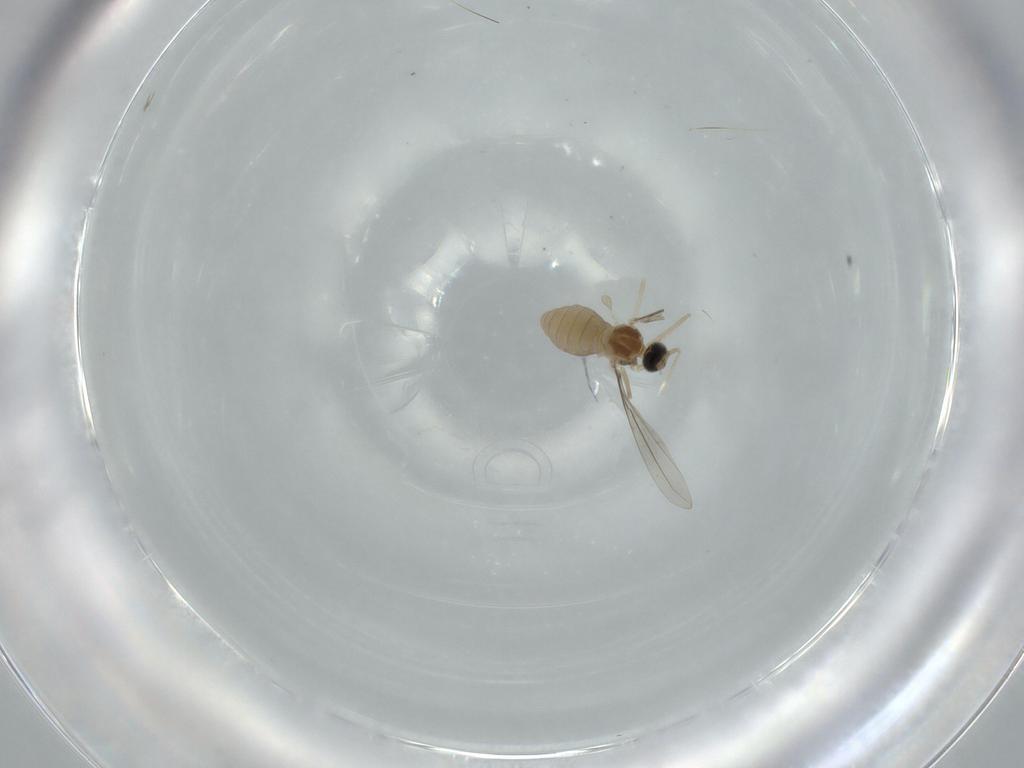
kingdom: Animalia
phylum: Arthropoda
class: Insecta
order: Diptera
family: Cecidomyiidae
